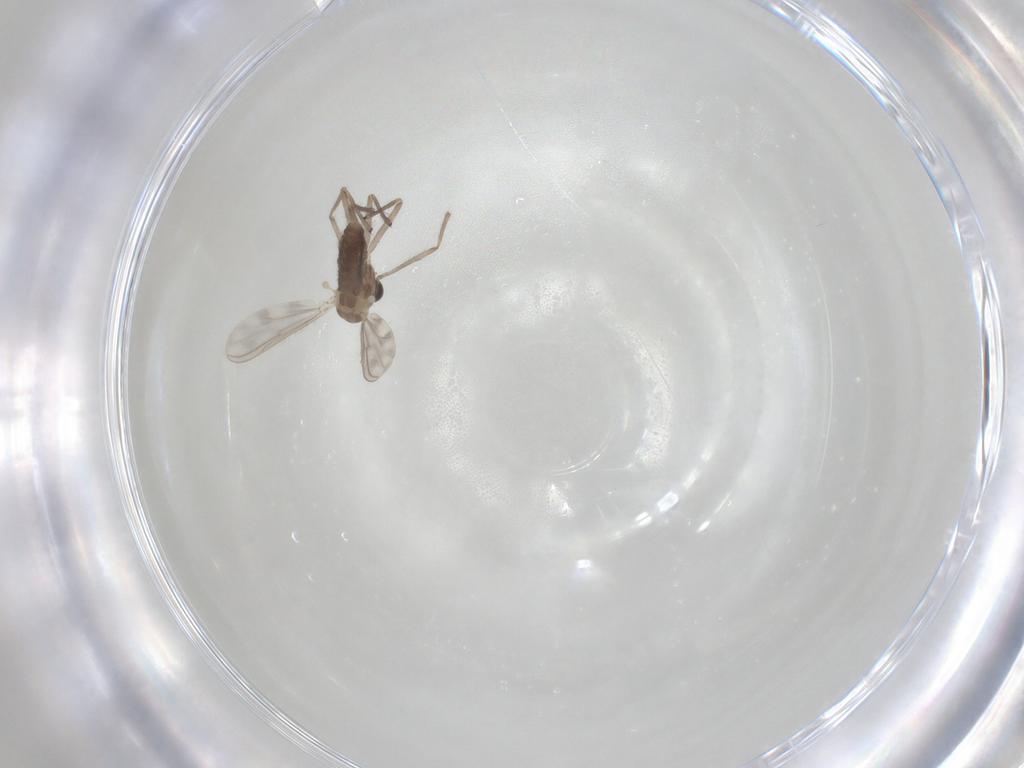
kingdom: Animalia
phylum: Arthropoda
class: Insecta
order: Diptera
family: Chironomidae
